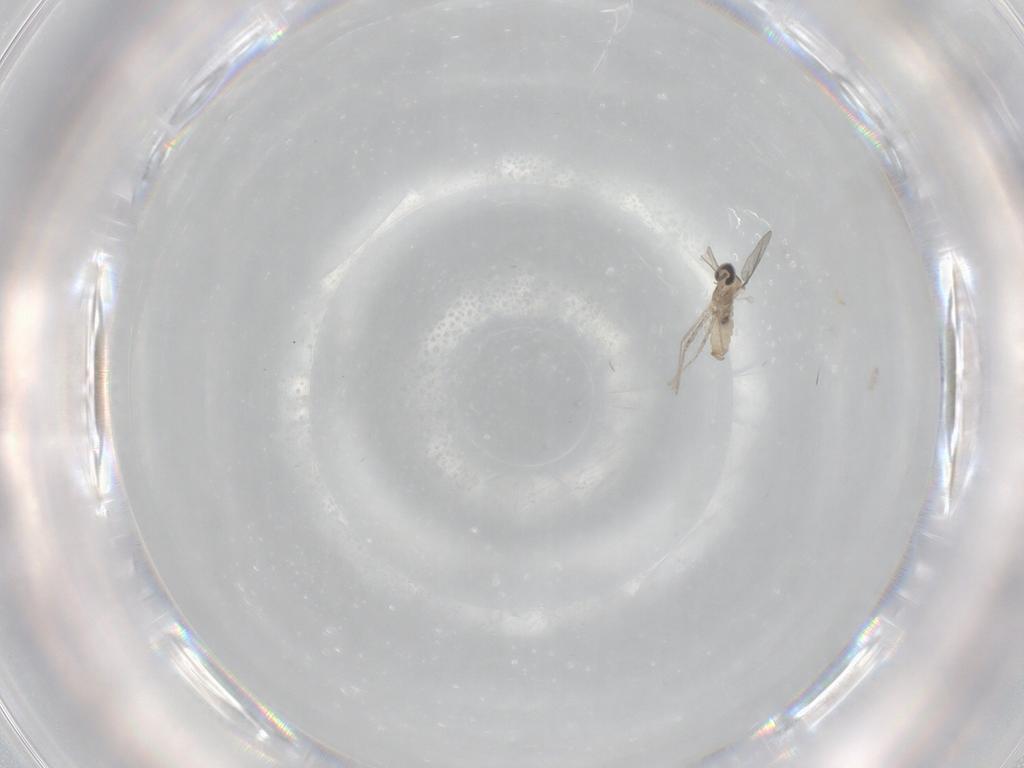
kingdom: Animalia
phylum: Arthropoda
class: Insecta
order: Diptera
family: Cecidomyiidae
